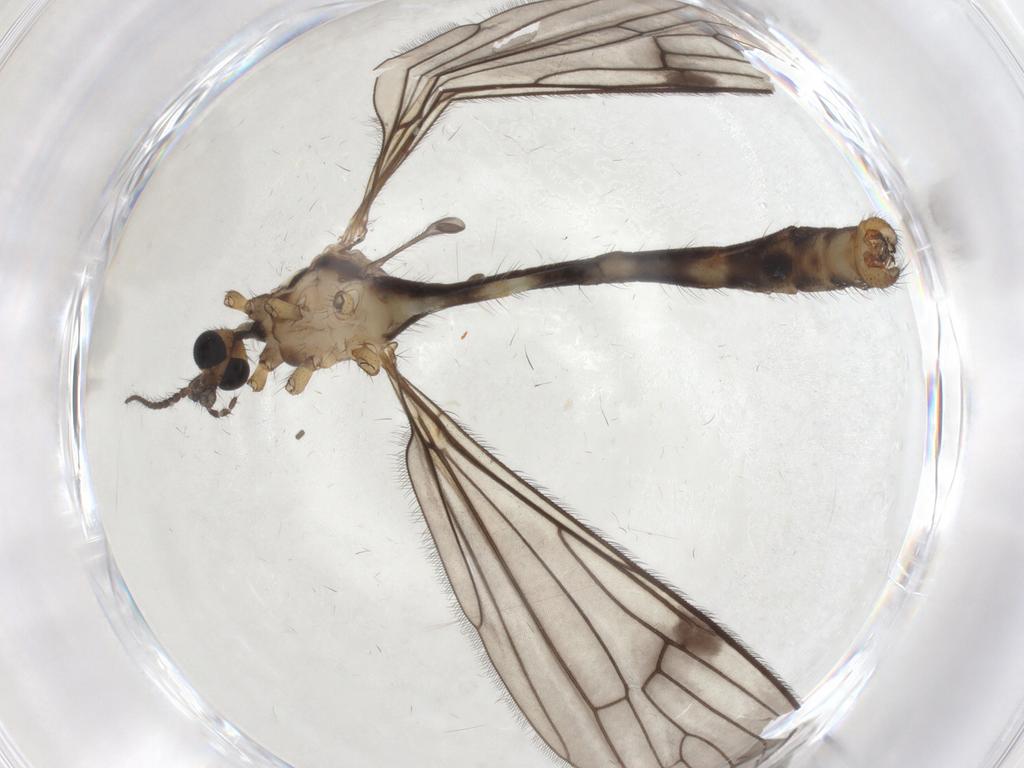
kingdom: Animalia
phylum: Arthropoda
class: Insecta
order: Diptera
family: Limoniidae
